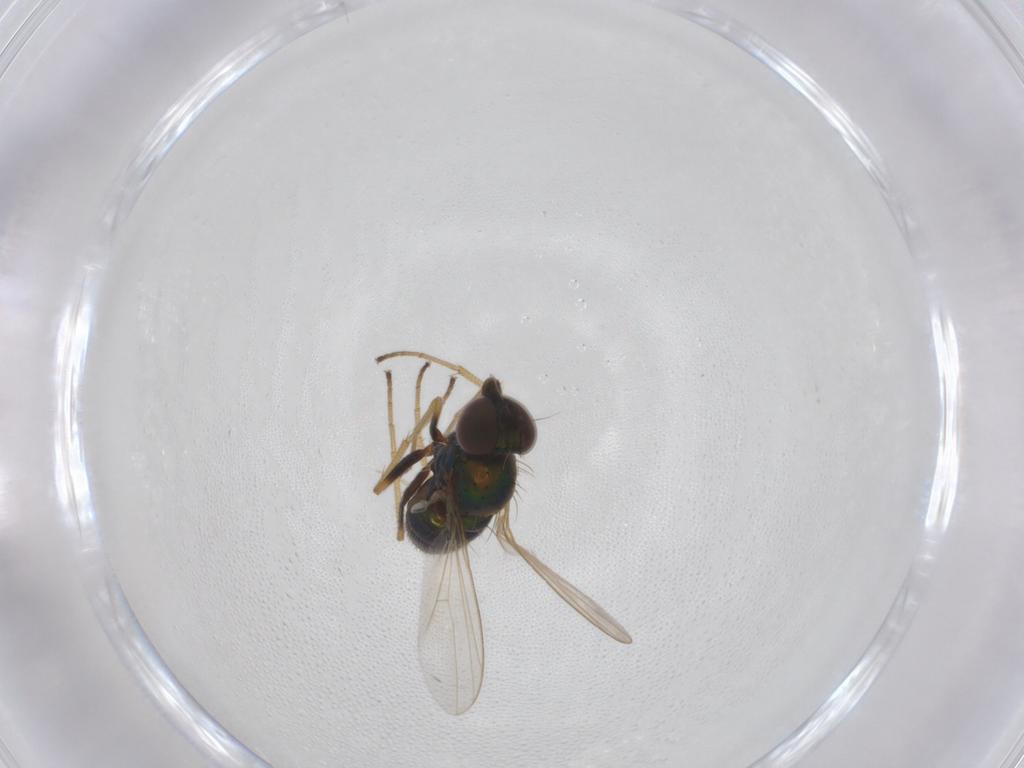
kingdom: Animalia
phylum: Arthropoda
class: Insecta
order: Diptera
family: Dolichopodidae
